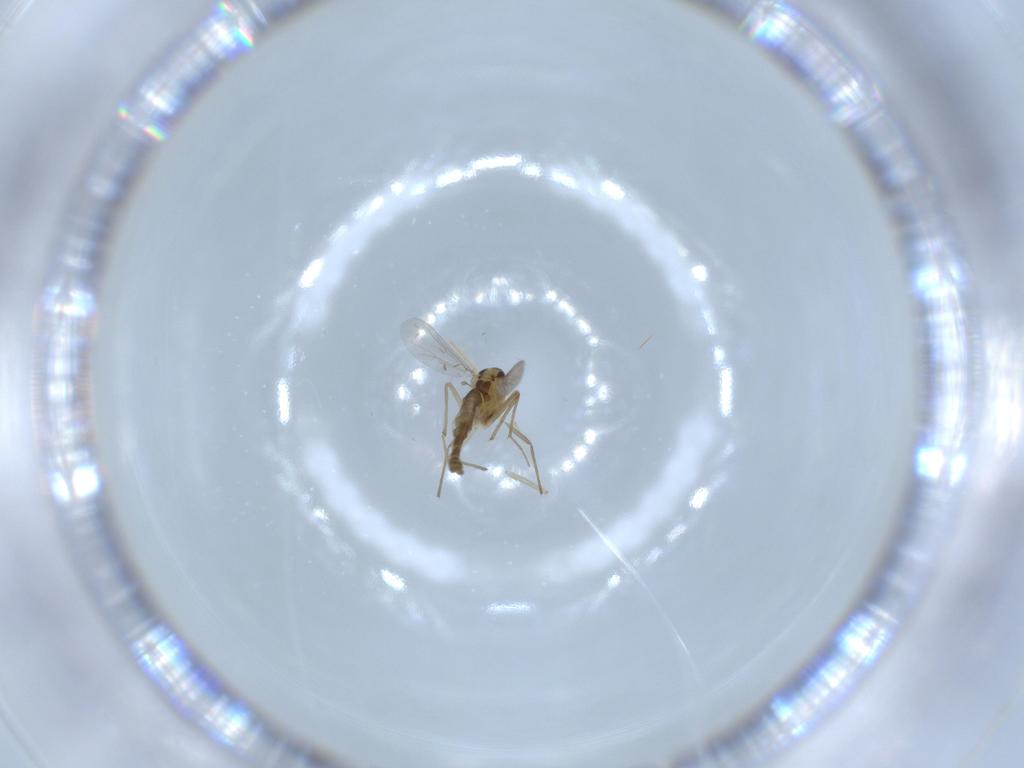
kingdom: Animalia
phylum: Arthropoda
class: Insecta
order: Diptera
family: Chironomidae
